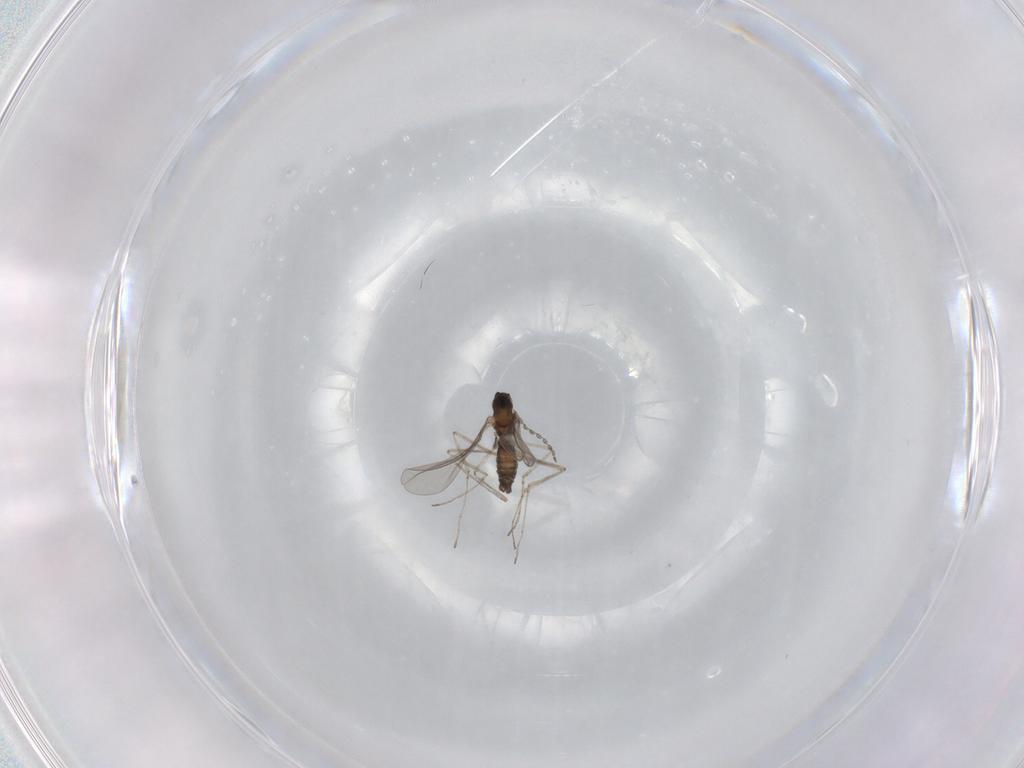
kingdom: Animalia
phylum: Arthropoda
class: Insecta
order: Diptera
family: Cecidomyiidae
